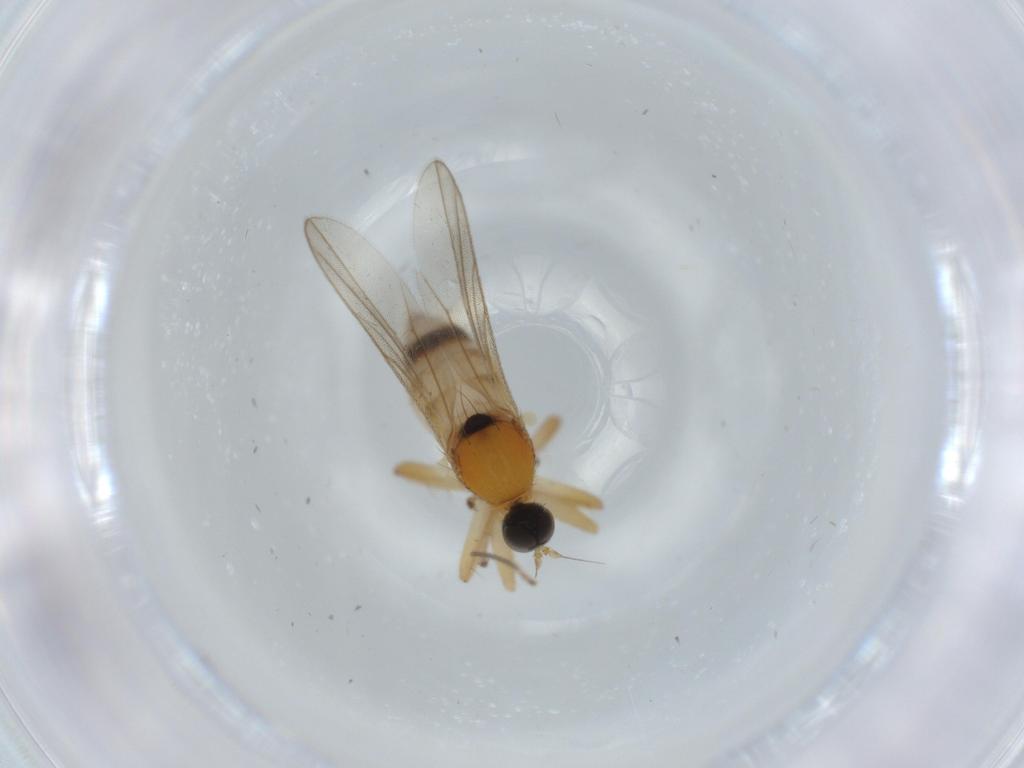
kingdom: Animalia
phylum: Arthropoda
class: Insecta
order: Diptera
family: Hybotidae
